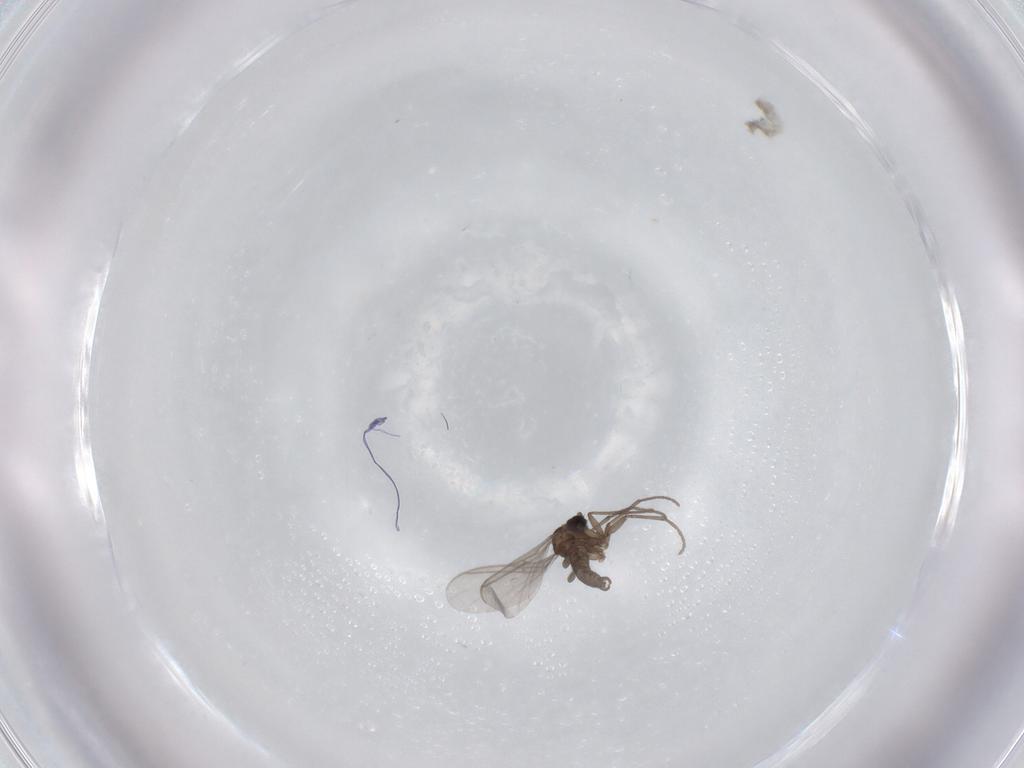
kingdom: Animalia
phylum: Arthropoda
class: Insecta
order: Diptera
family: Sciaridae
